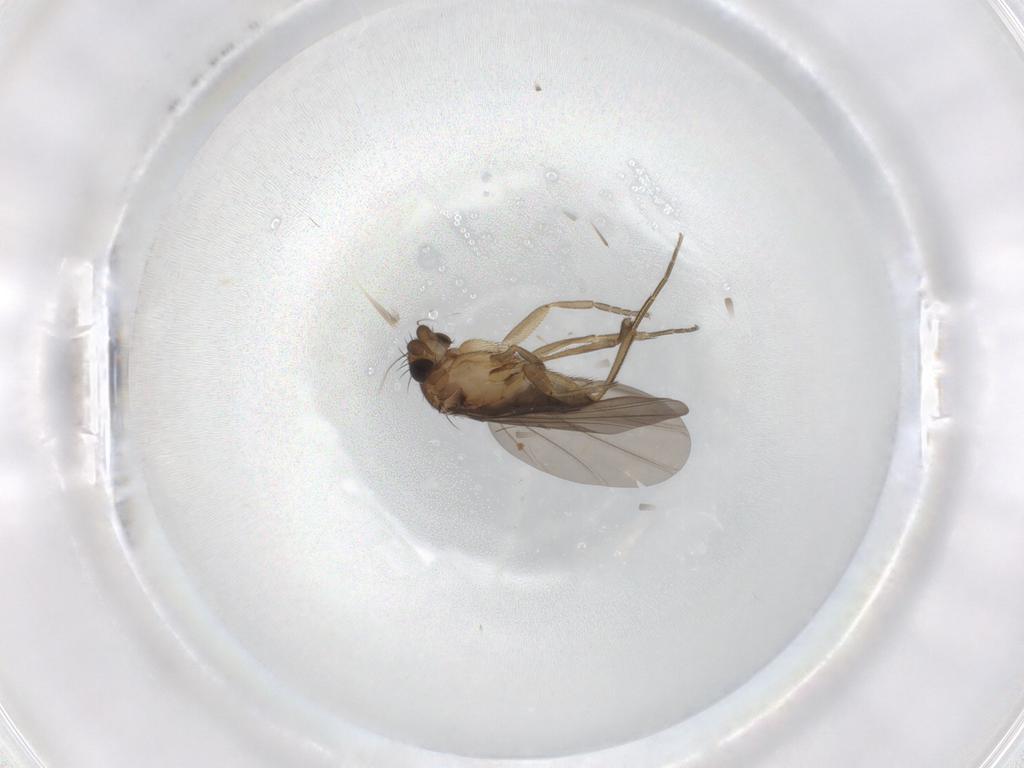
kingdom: Animalia
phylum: Arthropoda
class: Insecta
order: Diptera
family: Phoridae
